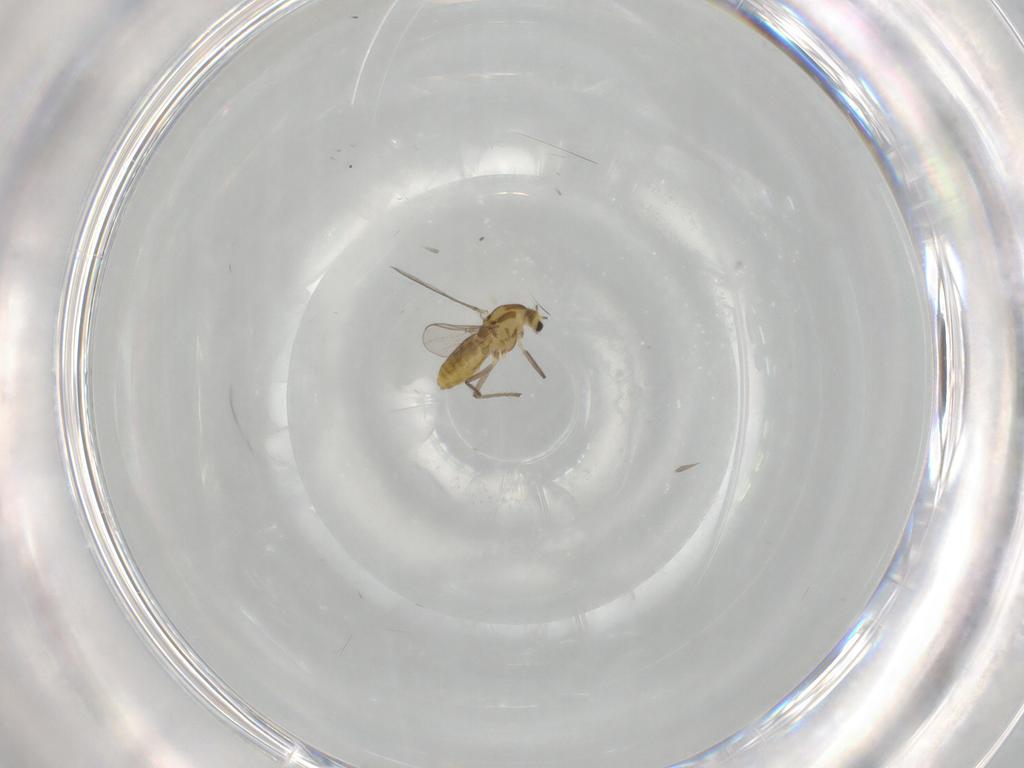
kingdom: Animalia
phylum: Arthropoda
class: Insecta
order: Diptera
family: Chironomidae
